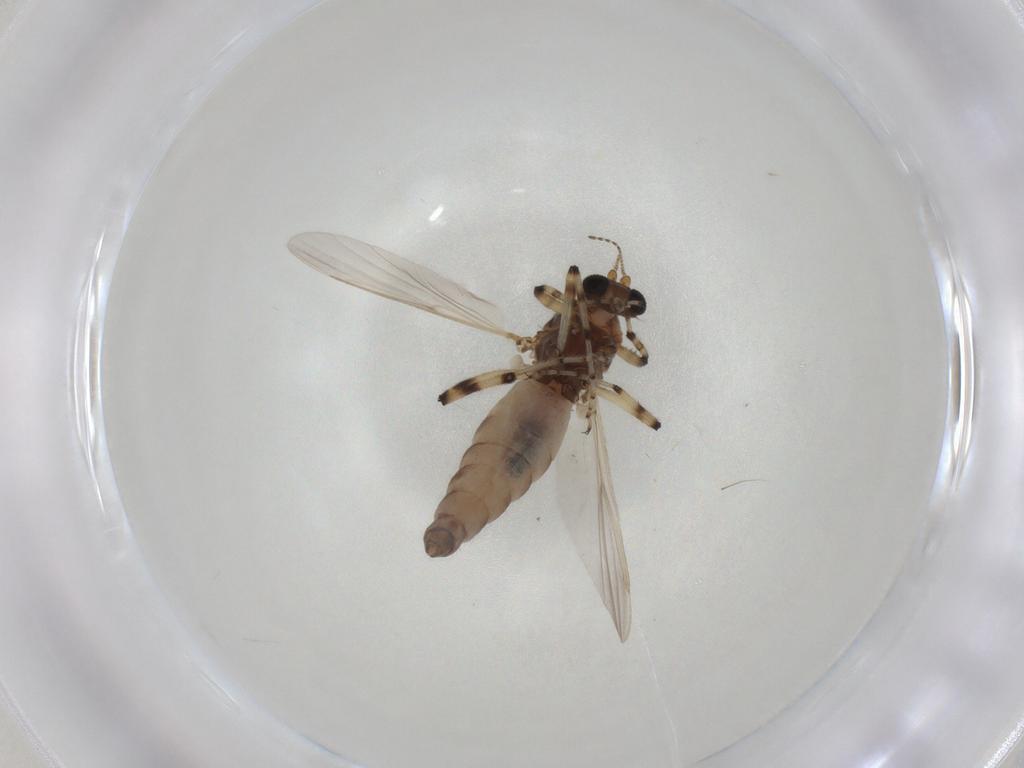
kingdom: Animalia
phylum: Arthropoda
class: Insecta
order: Diptera
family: Ceratopogonidae
